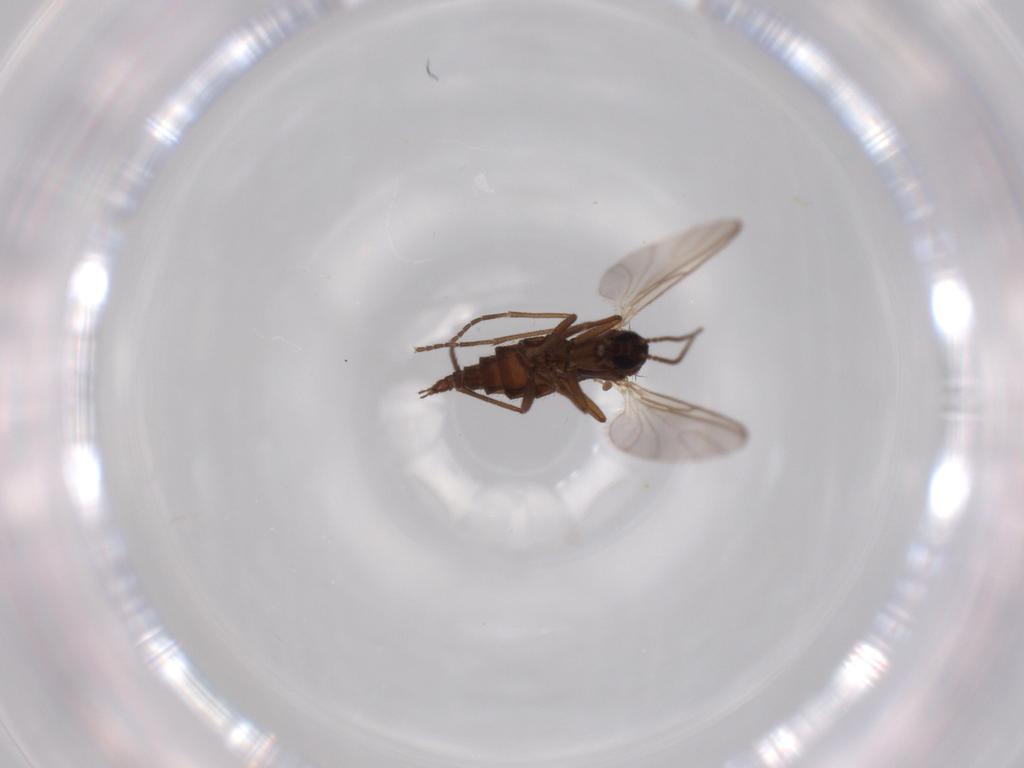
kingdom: Animalia
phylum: Arthropoda
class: Insecta
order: Diptera
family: Sciaridae
